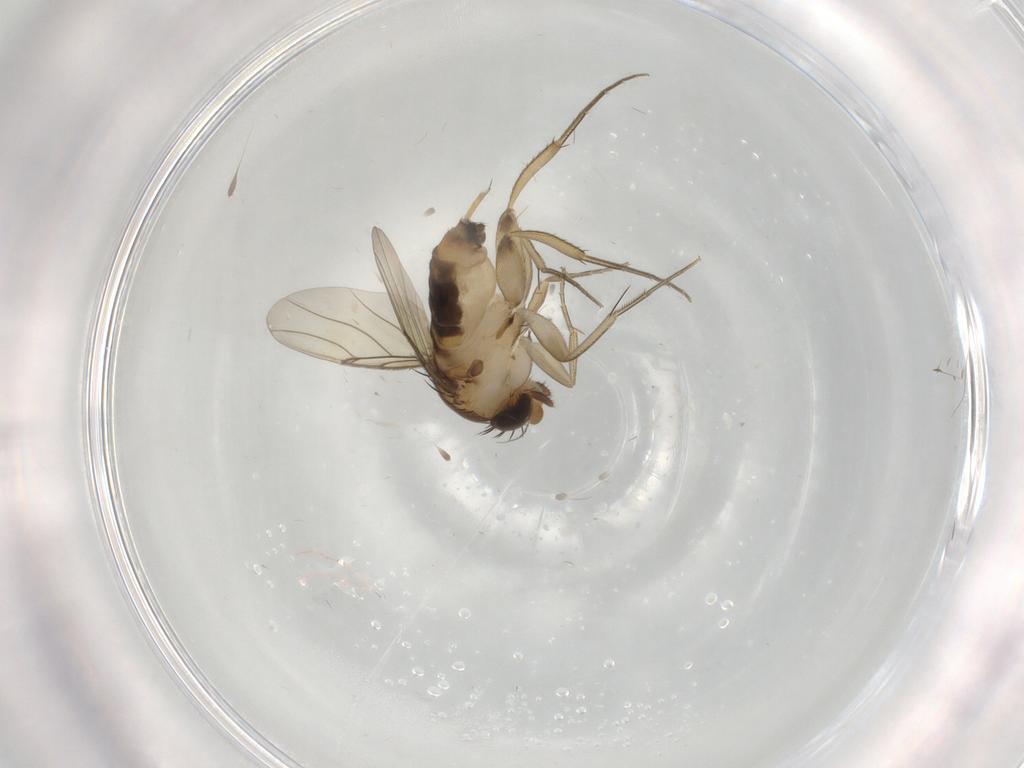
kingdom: Animalia
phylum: Arthropoda
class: Insecta
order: Diptera
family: Phoridae
